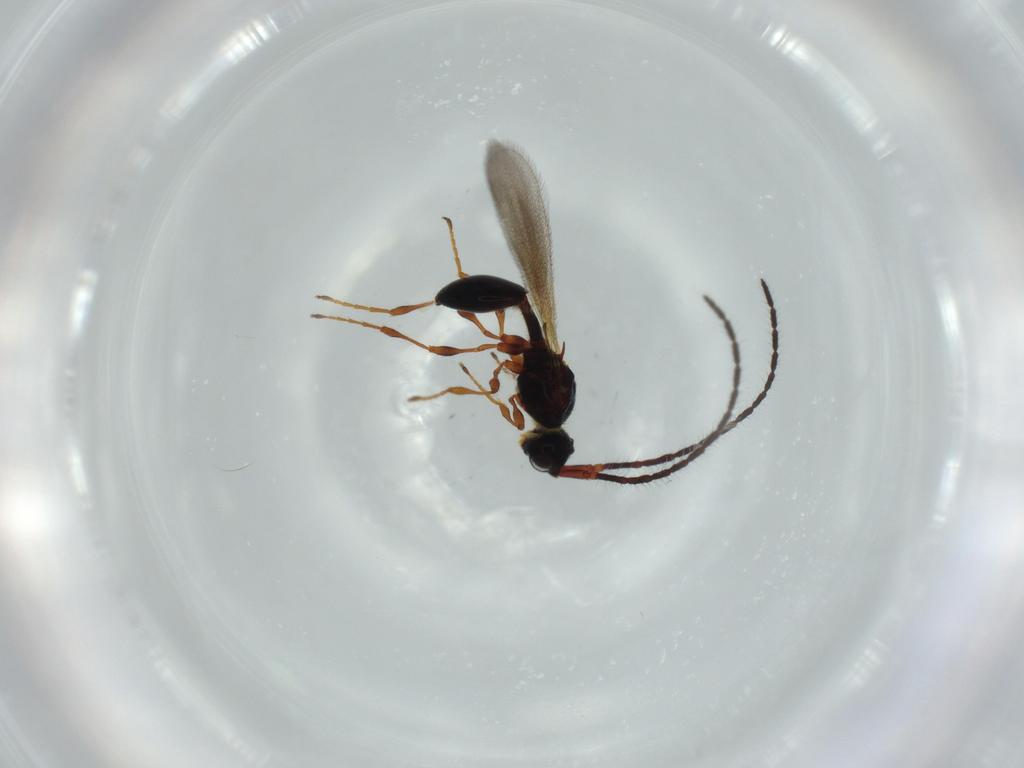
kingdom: Animalia
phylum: Arthropoda
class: Insecta
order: Hymenoptera
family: Diapriidae
